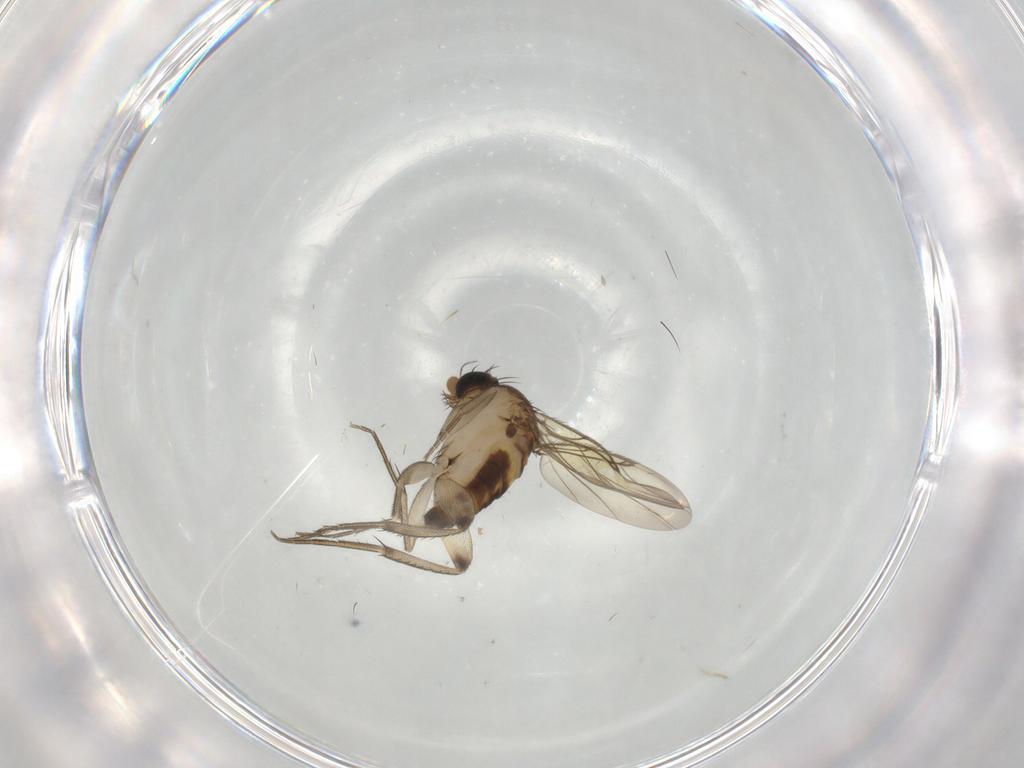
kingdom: Animalia
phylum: Arthropoda
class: Insecta
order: Diptera
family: Phoridae
